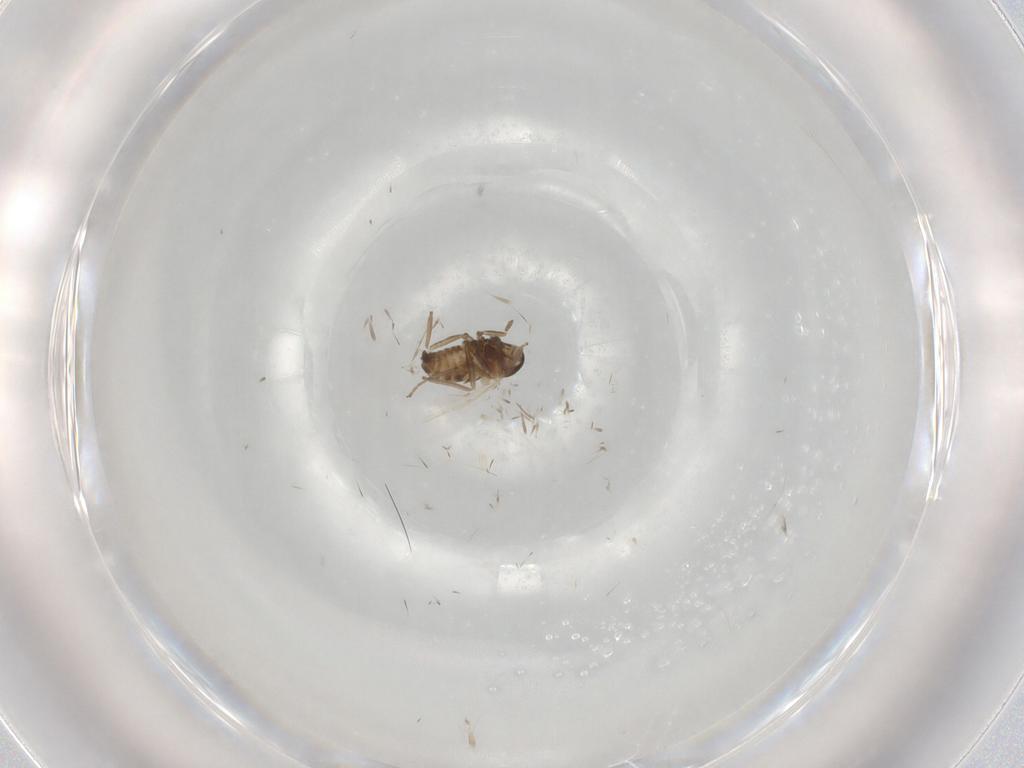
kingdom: Animalia
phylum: Arthropoda
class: Insecta
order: Diptera
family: Cecidomyiidae
